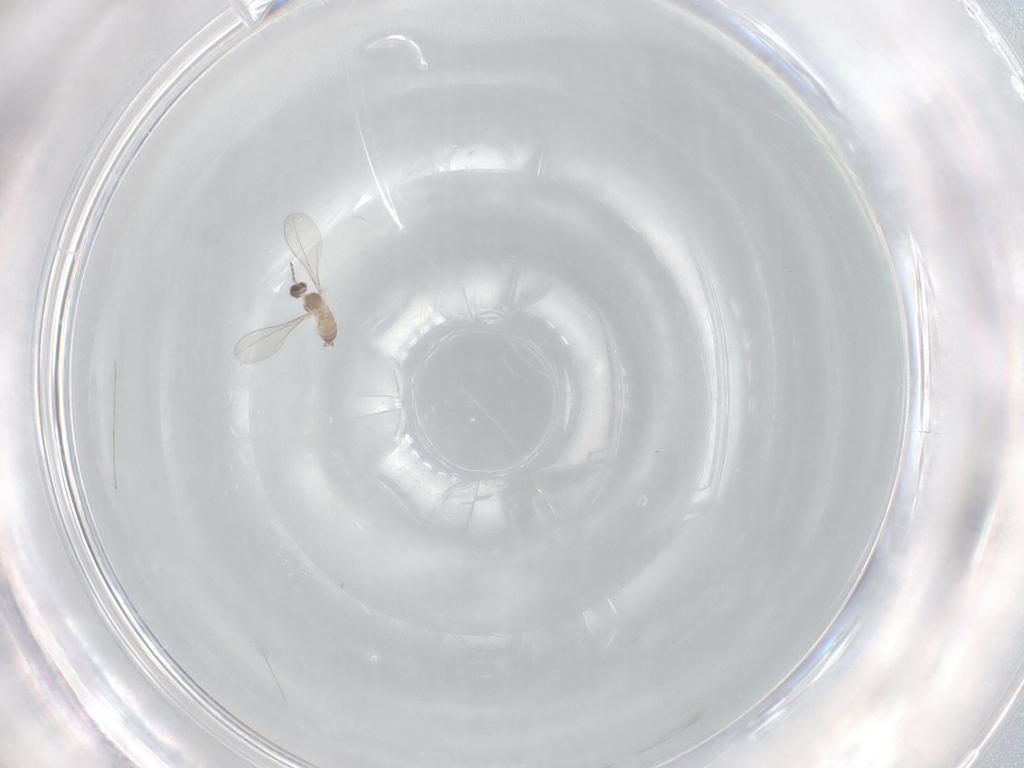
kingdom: Animalia
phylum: Arthropoda
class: Insecta
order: Diptera
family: Cecidomyiidae
